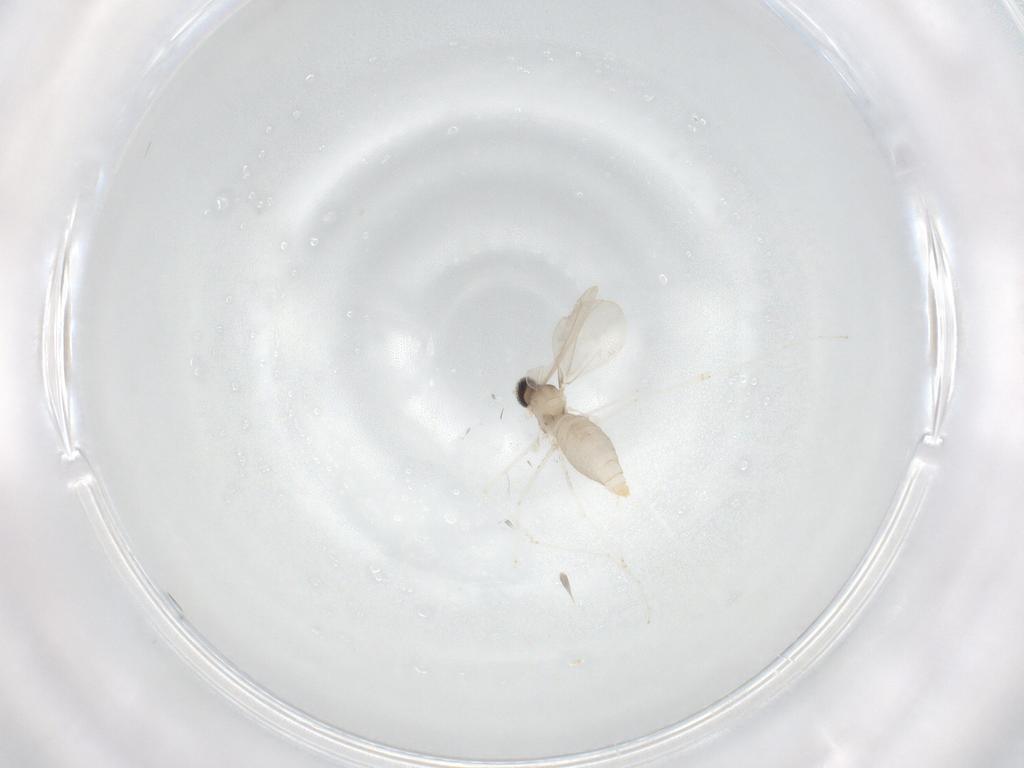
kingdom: Animalia
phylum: Arthropoda
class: Insecta
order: Diptera
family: Cecidomyiidae
